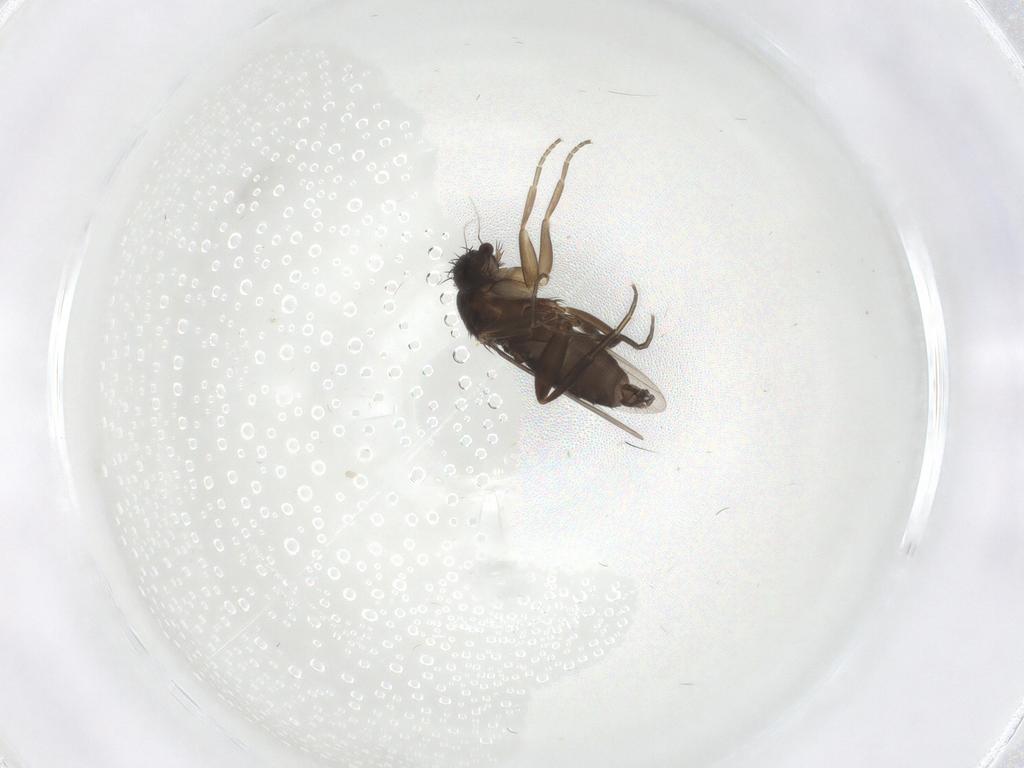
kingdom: Animalia
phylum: Arthropoda
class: Insecta
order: Diptera
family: Phoridae
